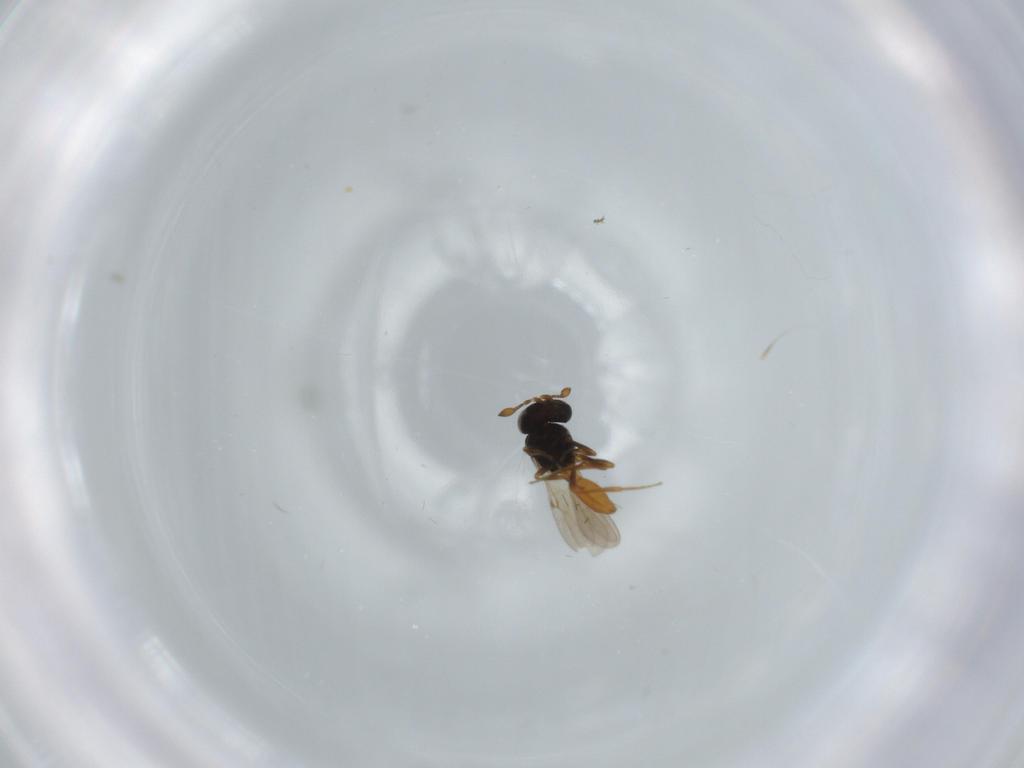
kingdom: Animalia
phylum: Arthropoda
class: Insecta
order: Hymenoptera
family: Scelionidae
